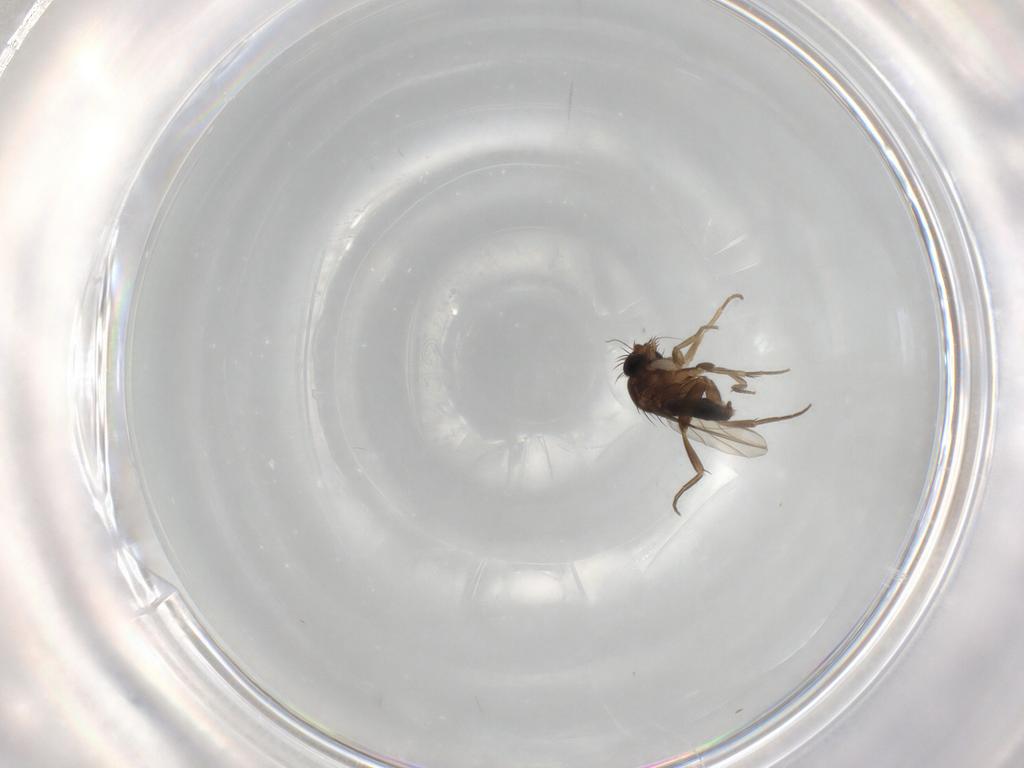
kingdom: Animalia
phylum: Arthropoda
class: Insecta
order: Diptera
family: Phoridae
